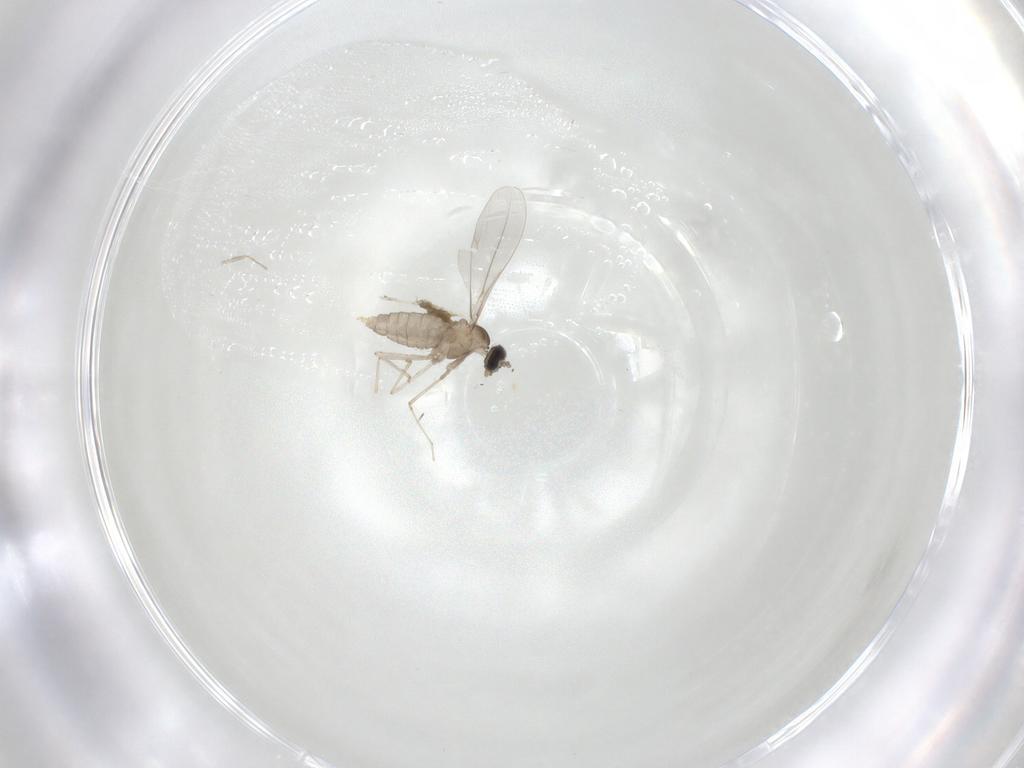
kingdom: Animalia
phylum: Arthropoda
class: Insecta
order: Diptera
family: Cecidomyiidae
